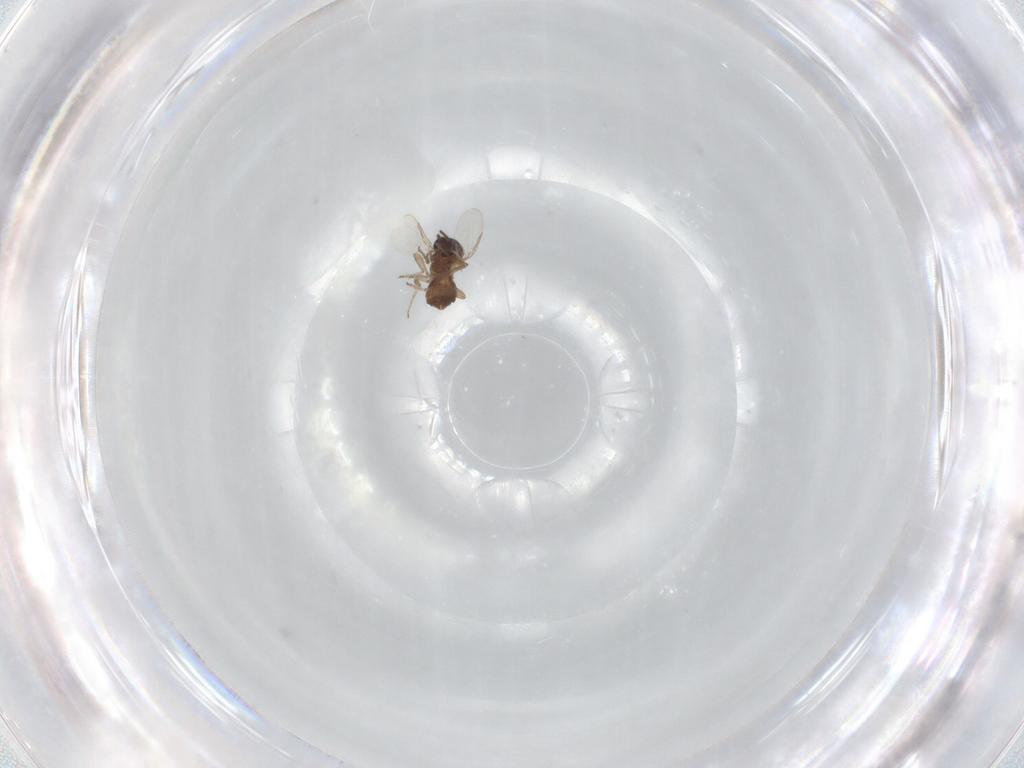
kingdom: Animalia
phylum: Arthropoda
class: Insecta
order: Diptera
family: Ceratopogonidae
